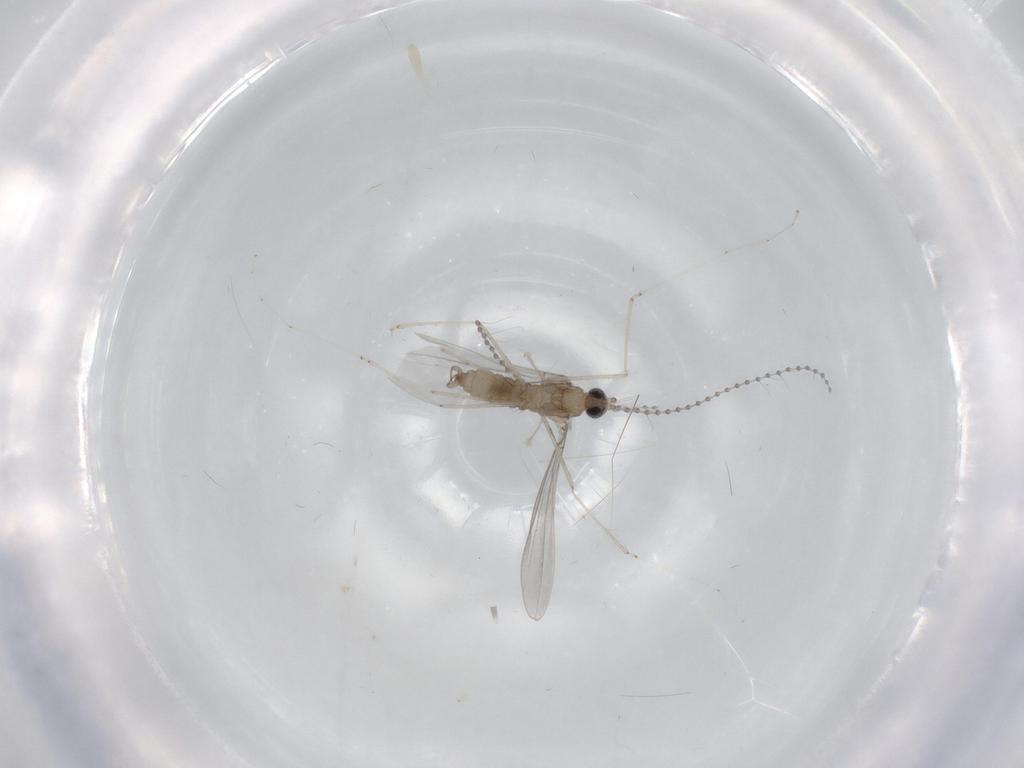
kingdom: Animalia
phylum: Arthropoda
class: Insecta
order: Diptera
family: Cecidomyiidae
